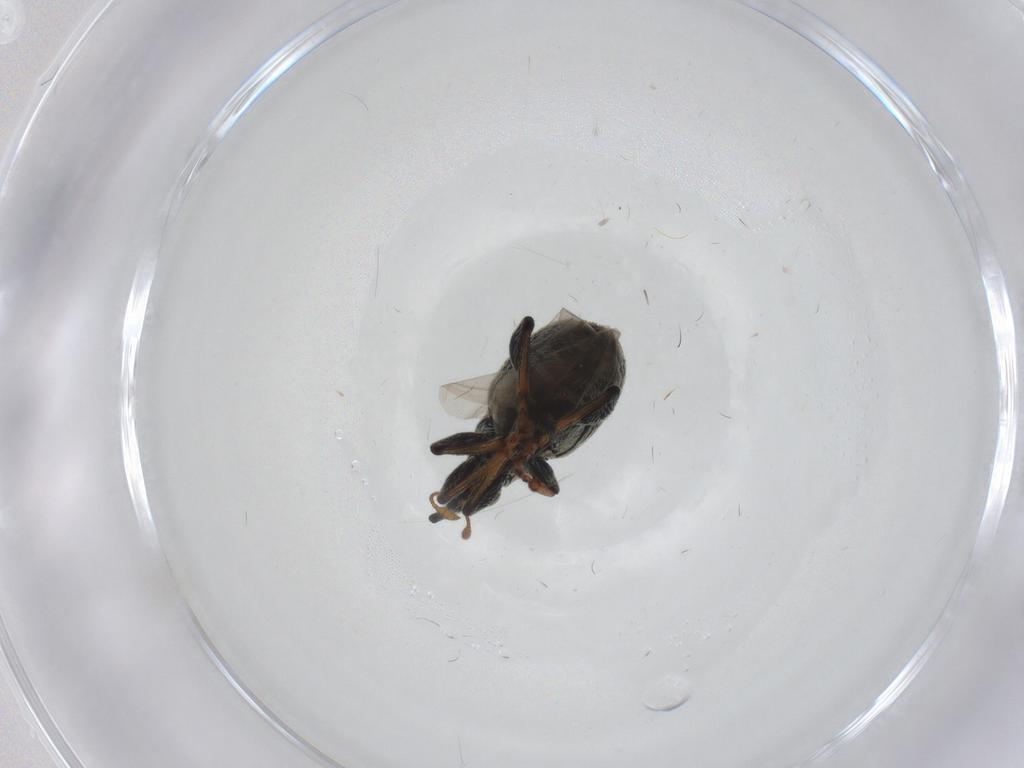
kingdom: Animalia
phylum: Arthropoda
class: Insecta
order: Coleoptera
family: Brentidae
